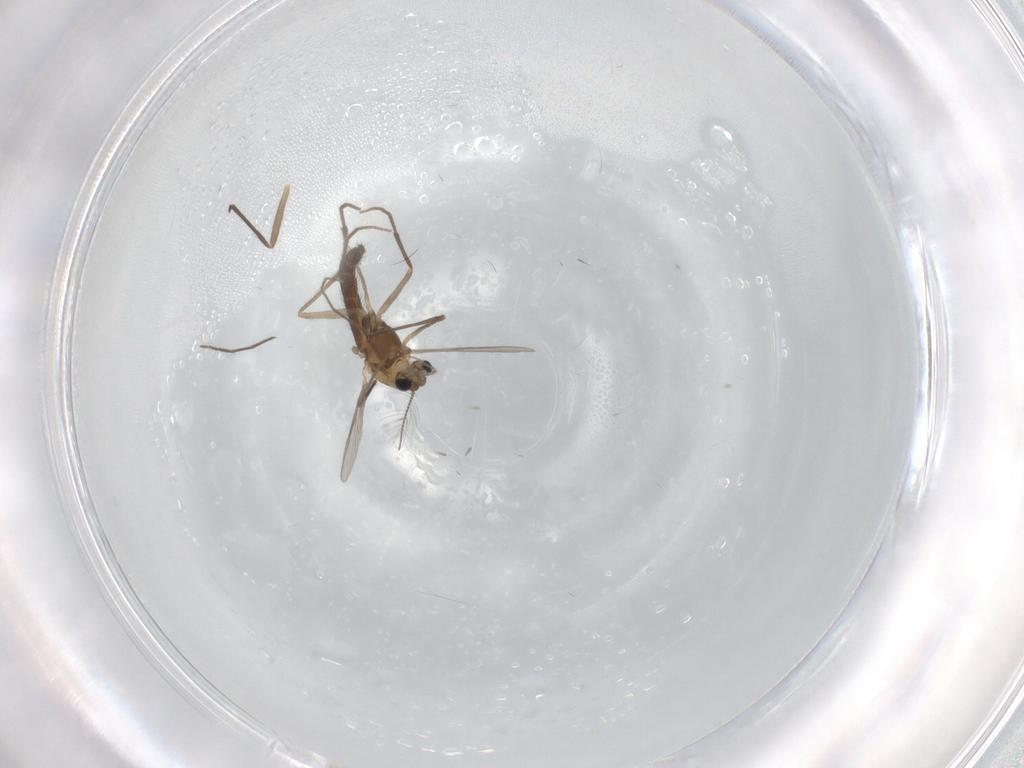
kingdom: Animalia
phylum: Arthropoda
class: Insecta
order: Diptera
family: Chironomidae
